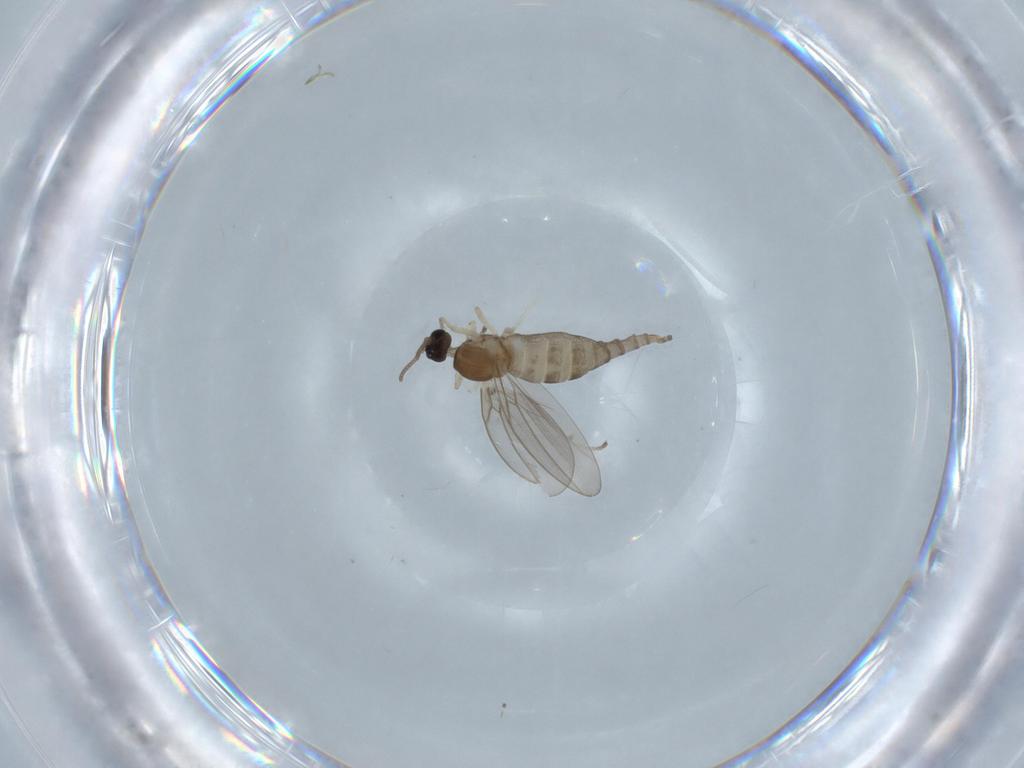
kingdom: Animalia
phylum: Arthropoda
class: Insecta
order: Diptera
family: Cecidomyiidae
